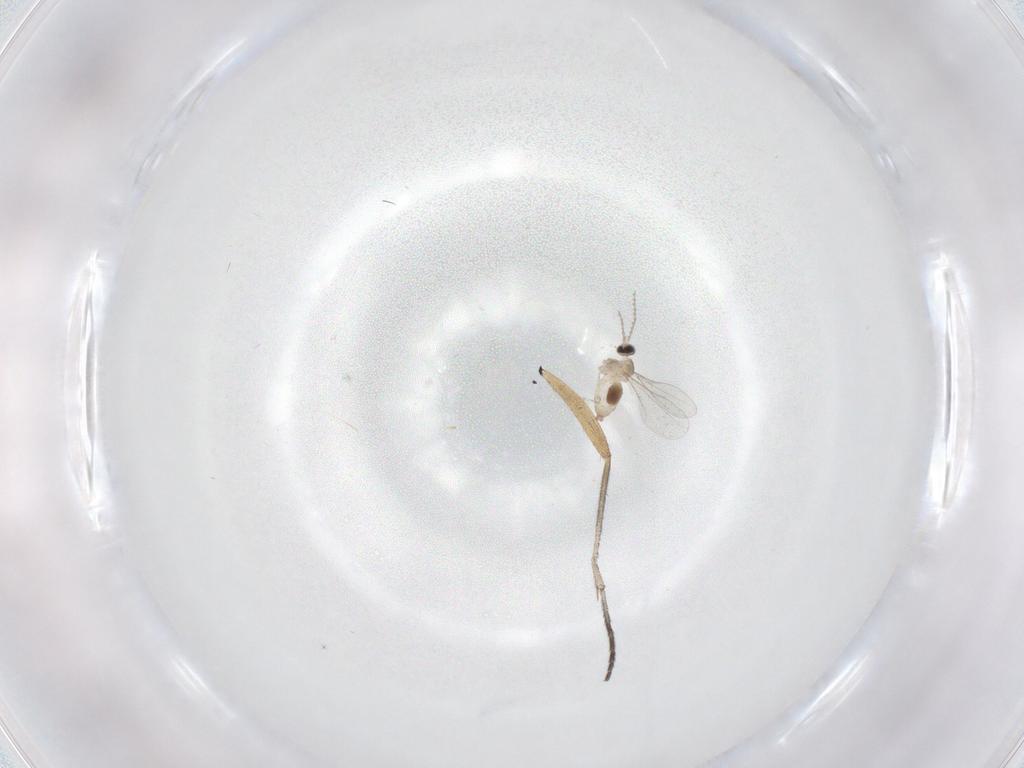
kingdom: Animalia
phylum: Arthropoda
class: Insecta
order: Diptera
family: Sciaridae
